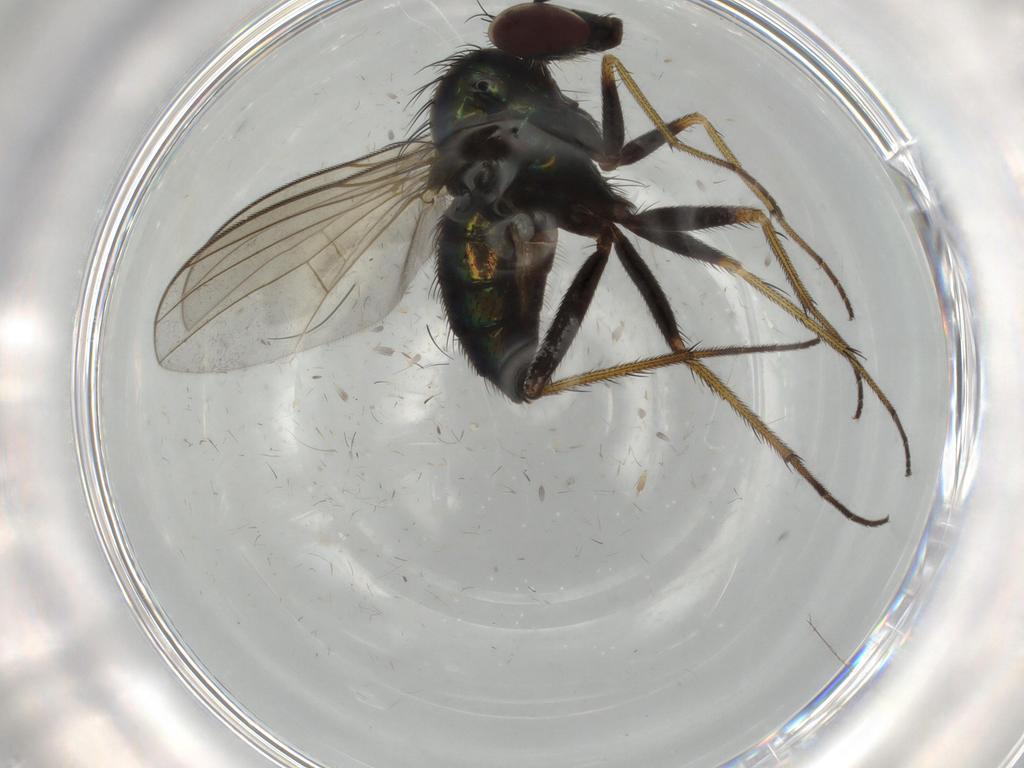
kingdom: Animalia
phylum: Arthropoda
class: Insecta
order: Diptera
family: Dolichopodidae
